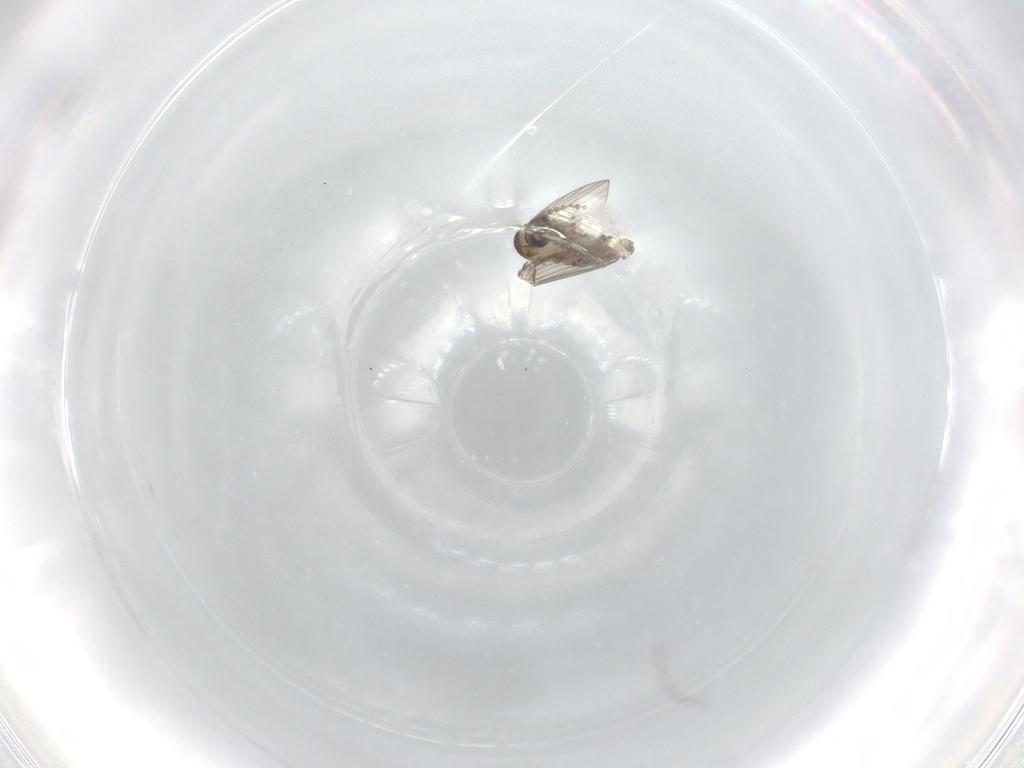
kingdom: Animalia
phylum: Arthropoda
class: Insecta
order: Diptera
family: Psychodidae
